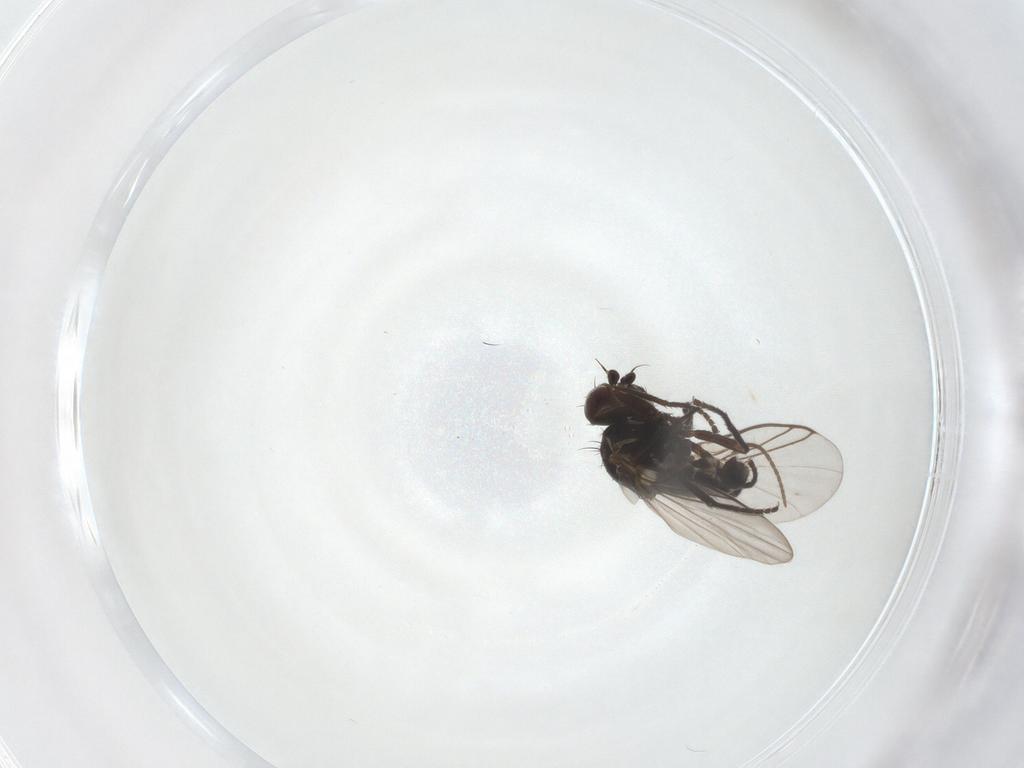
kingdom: Animalia
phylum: Arthropoda
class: Insecta
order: Diptera
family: Agromyzidae
